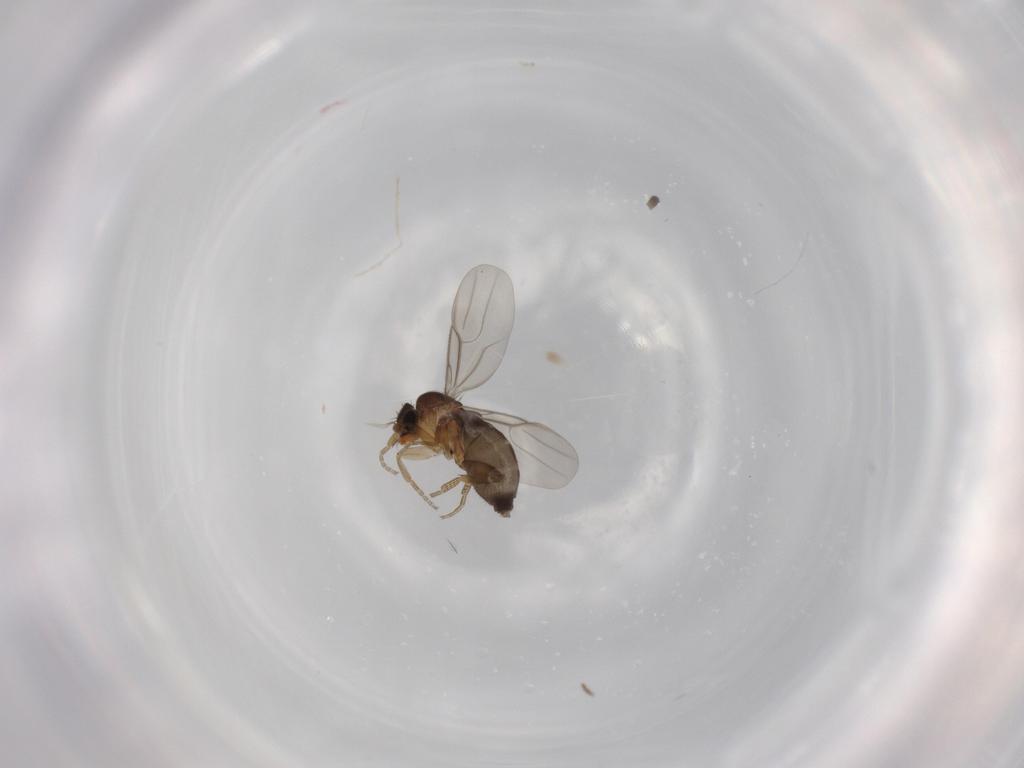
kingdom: Animalia
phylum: Arthropoda
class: Insecta
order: Diptera
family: Phoridae
